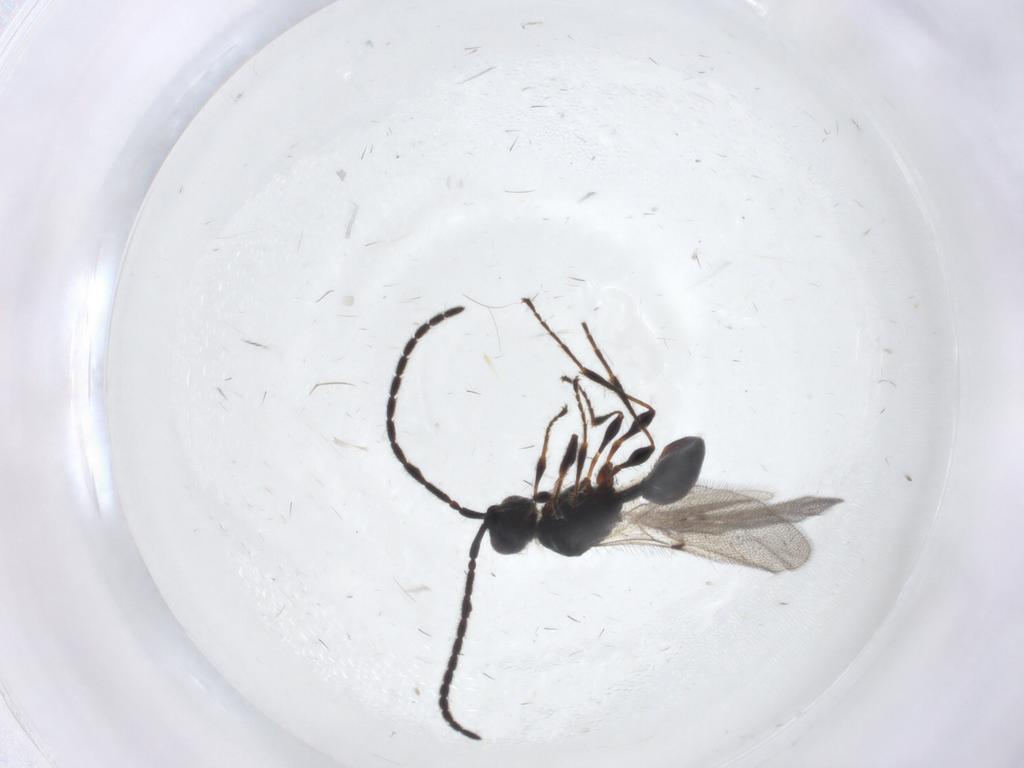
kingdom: Animalia
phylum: Arthropoda
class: Insecta
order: Hymenoptera
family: Diapriidae
